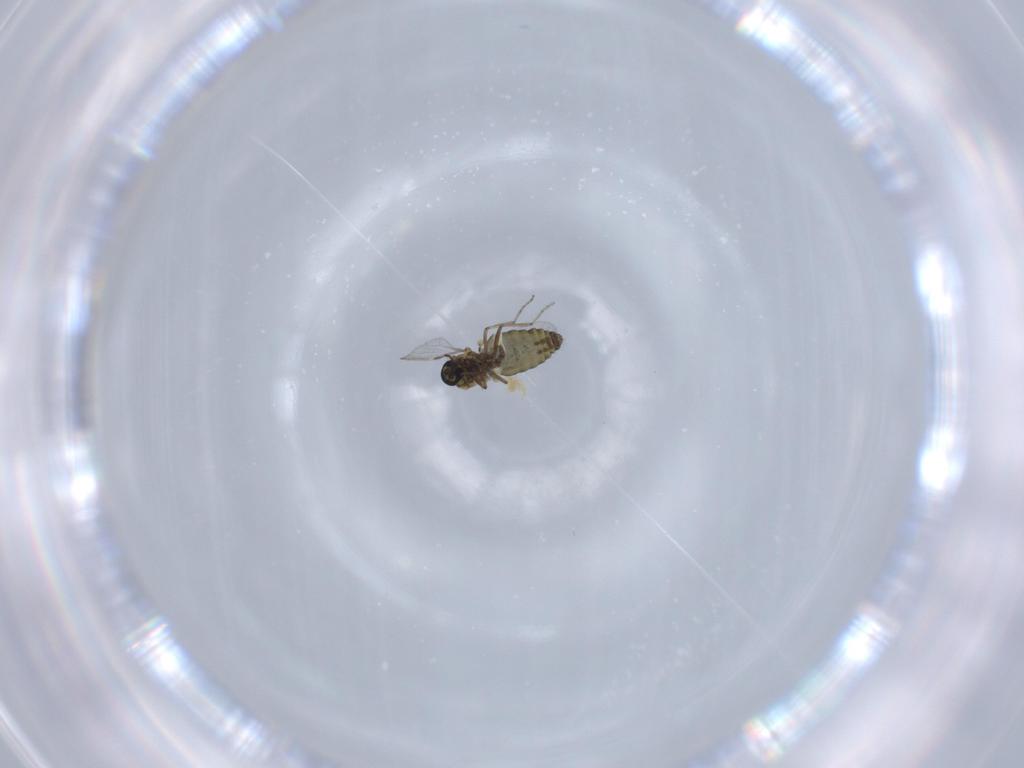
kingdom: Animalia
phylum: Arthropoda
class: Insecta
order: Diptera
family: Ceratopogonidae
